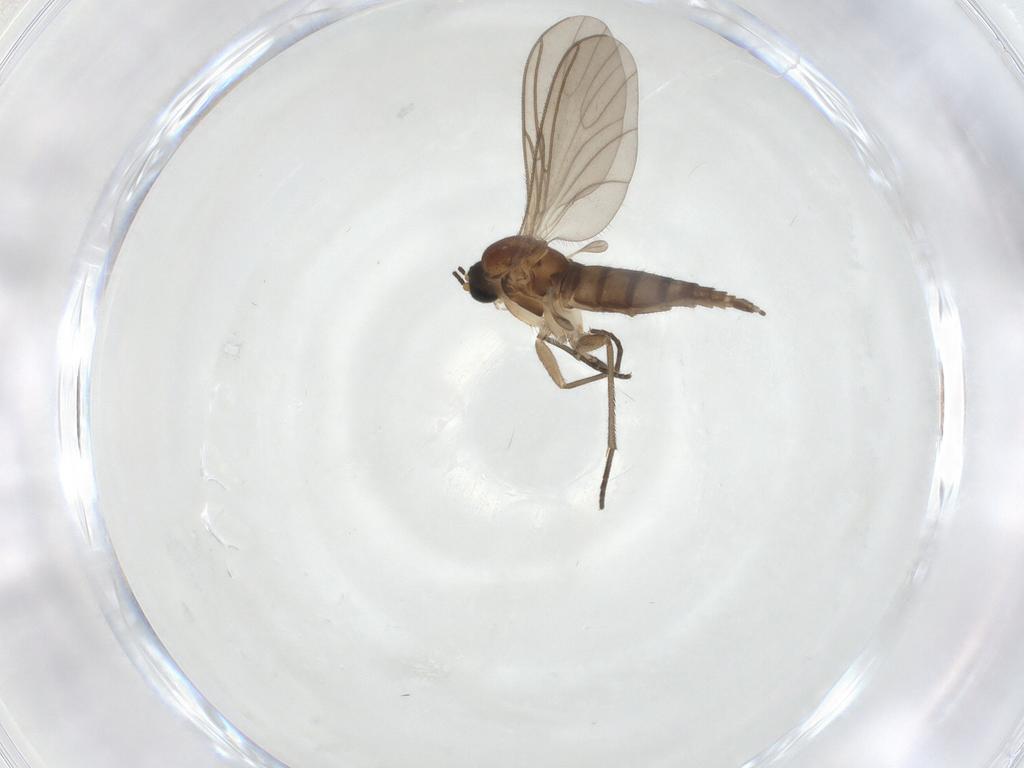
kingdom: Animalia
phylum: Arthropoda
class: Insecta
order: Diptera
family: Sciaridae
